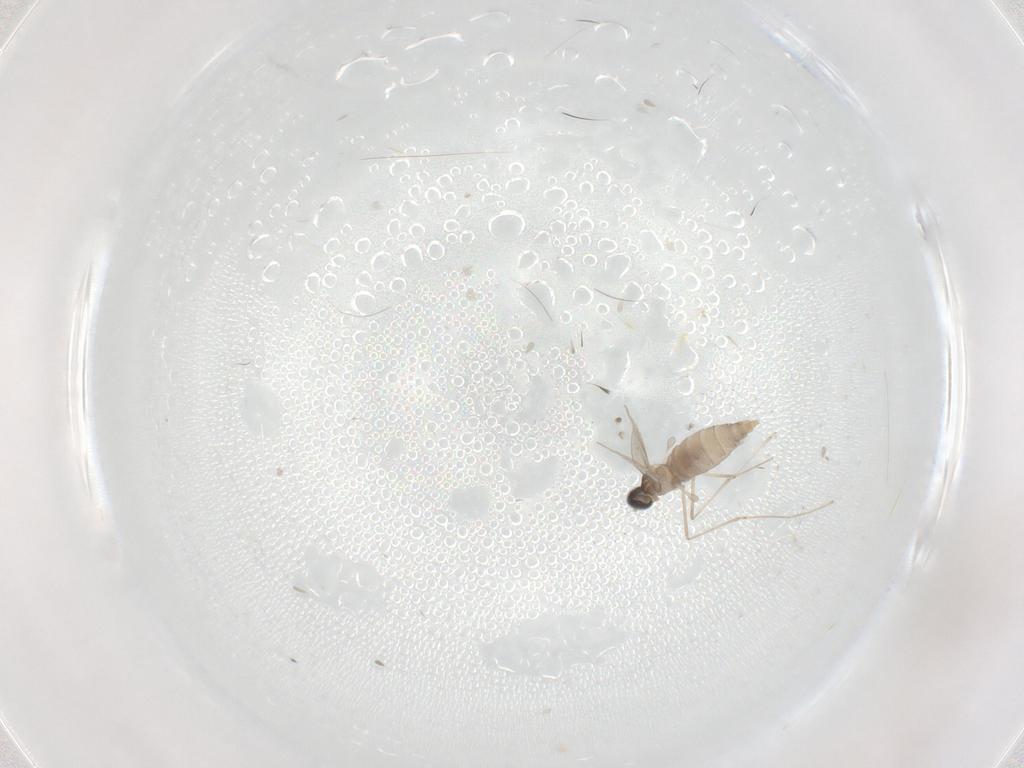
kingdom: Animalia
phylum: Arthropoda
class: Insecta
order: Diptera
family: Cecidomyiidae
